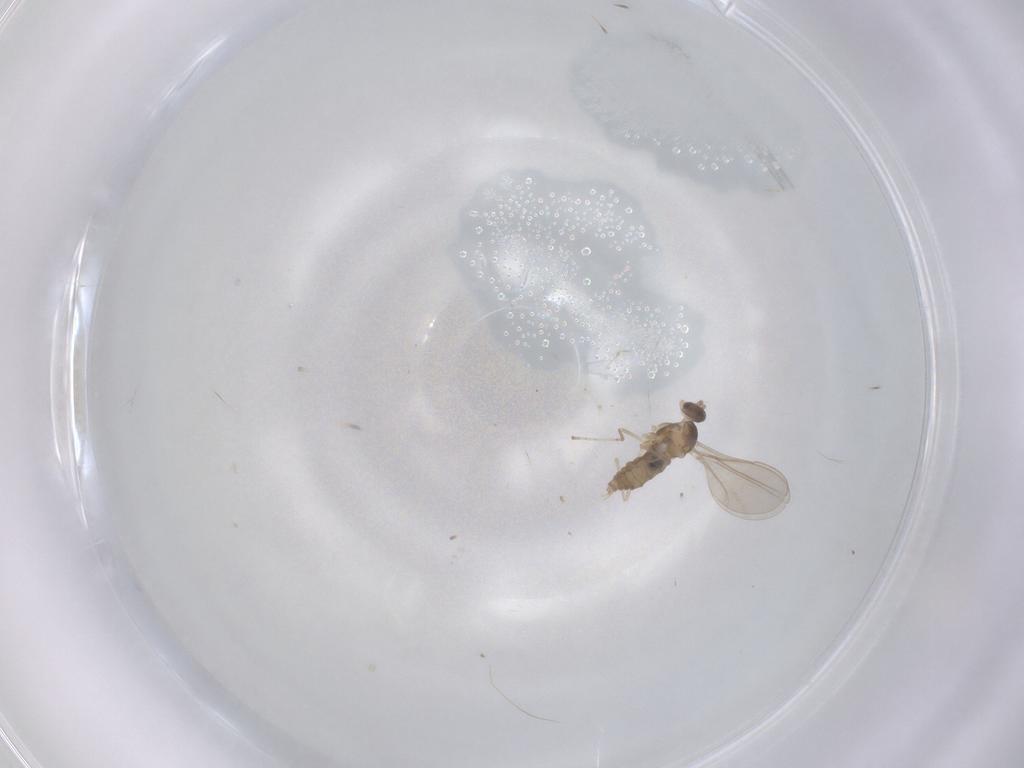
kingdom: Animalia
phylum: Arthropoda
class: Insecta
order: Diptera
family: Cecidomyiidae
